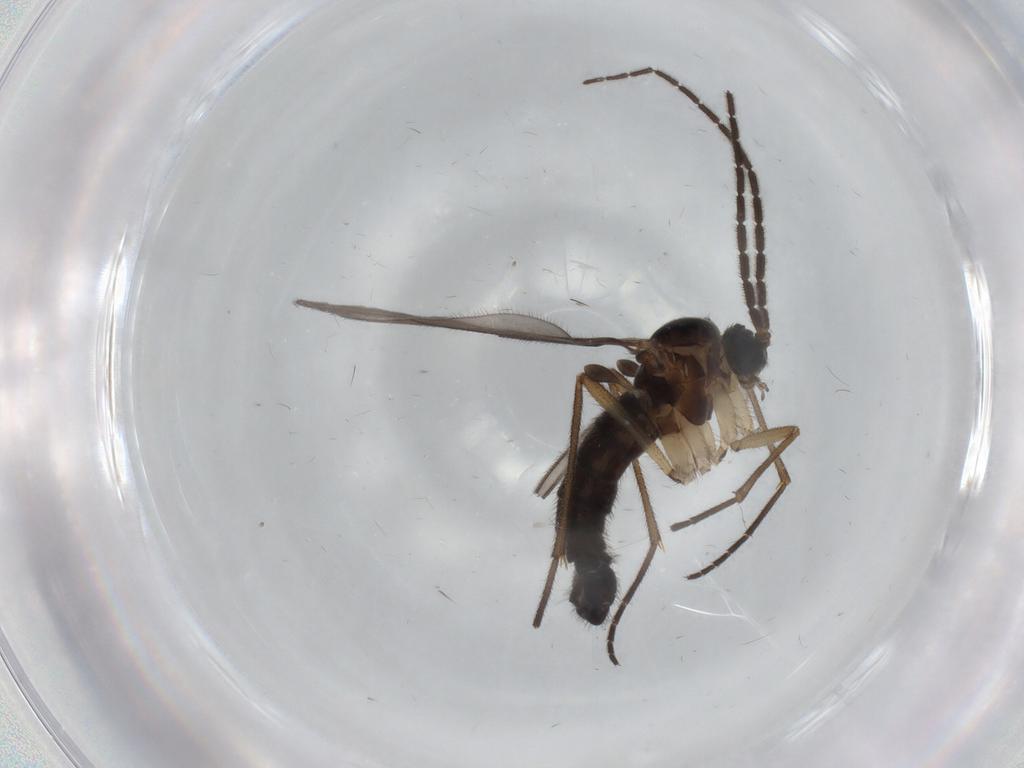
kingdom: Animalia
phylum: Arthropoda
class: Insecta
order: Diptera
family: Sciaridae
